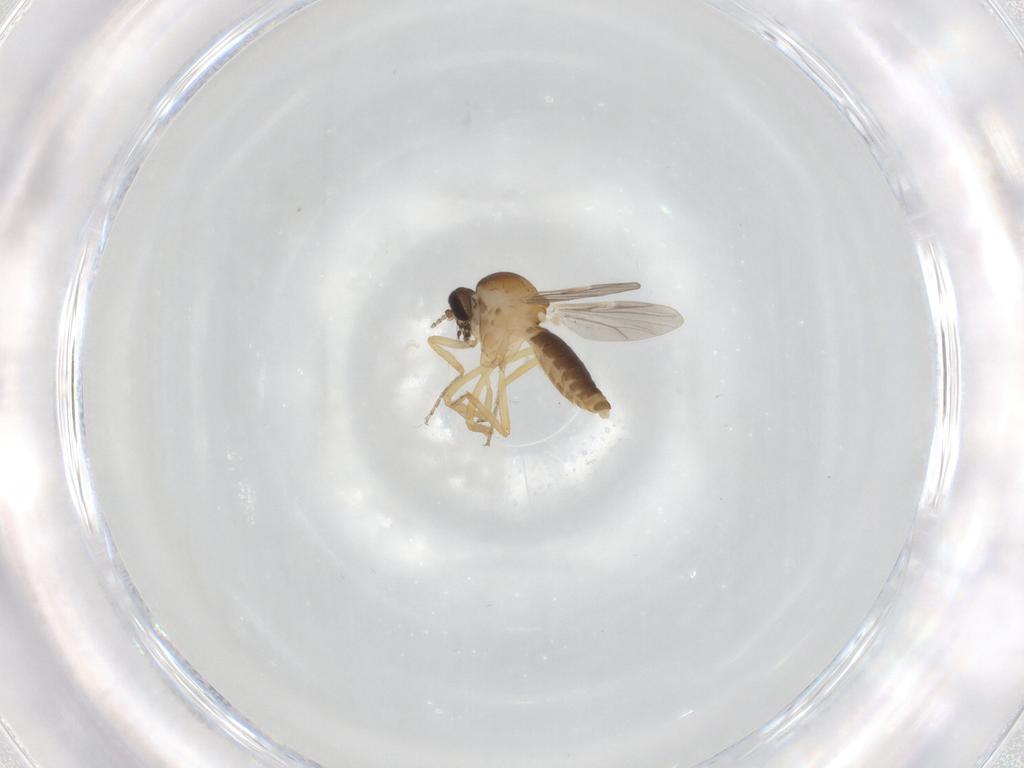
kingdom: Animalia
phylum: Arthropoda
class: Insecta
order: Diptera
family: Ceratopogonidae
